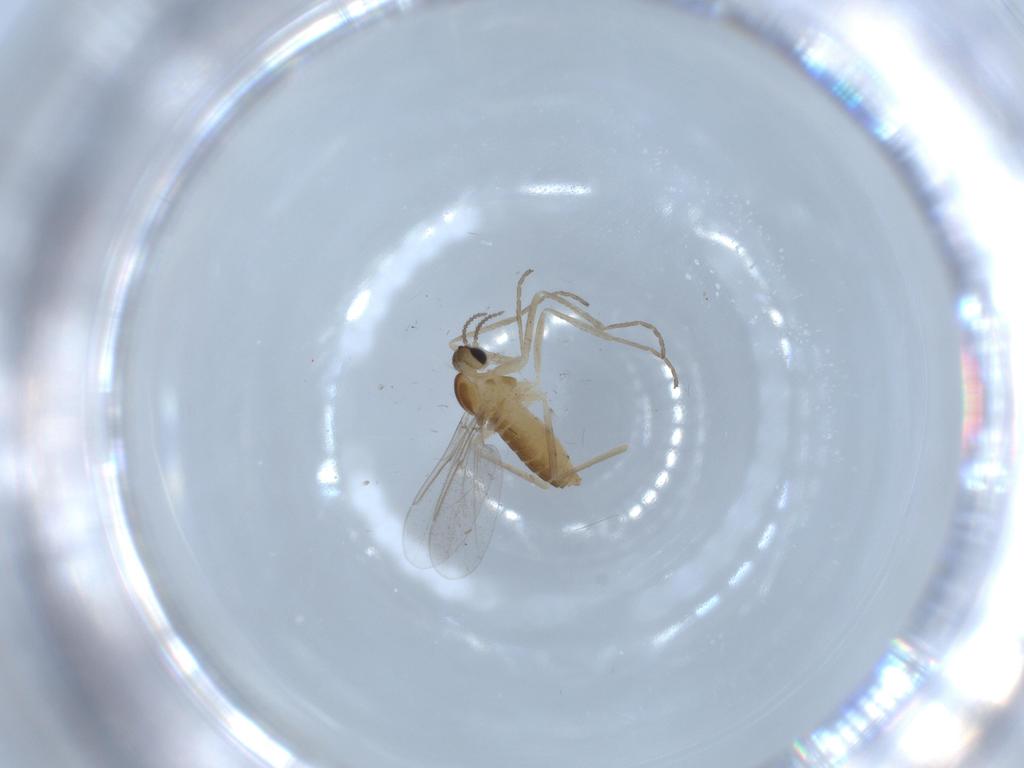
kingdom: Animalia
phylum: Arthropoda
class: Insecta
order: Diptera
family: Cecidomyiidae
